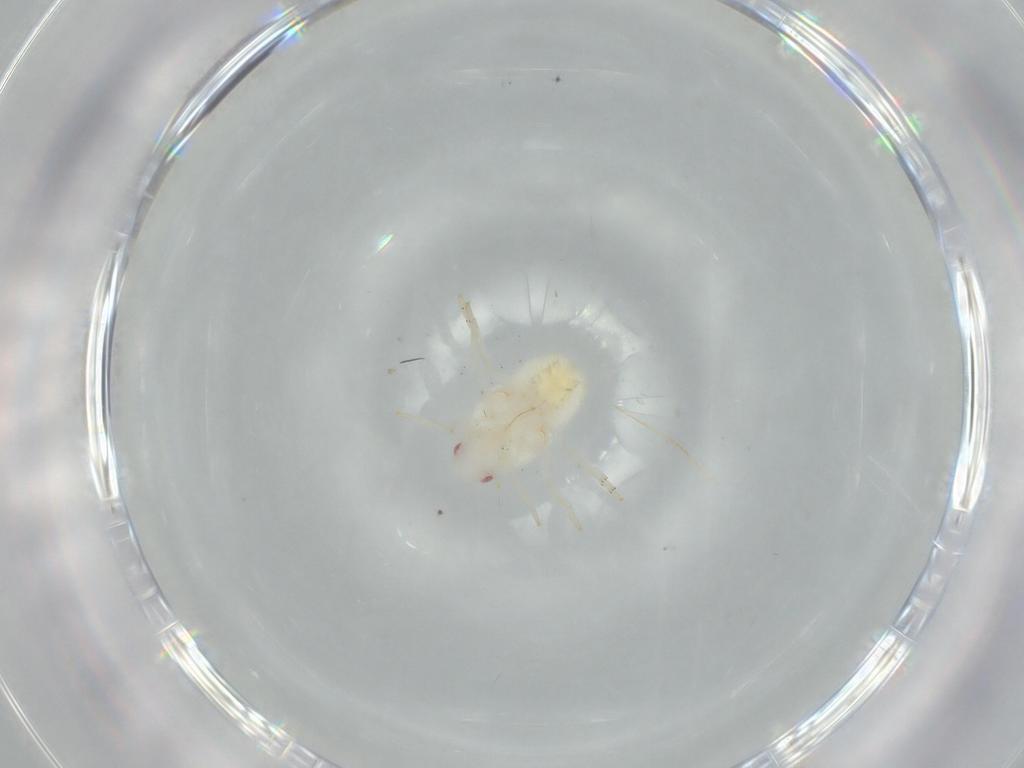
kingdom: Animalia
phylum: Arthropoda
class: Insecta
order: Hemiptera
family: Flatidae
